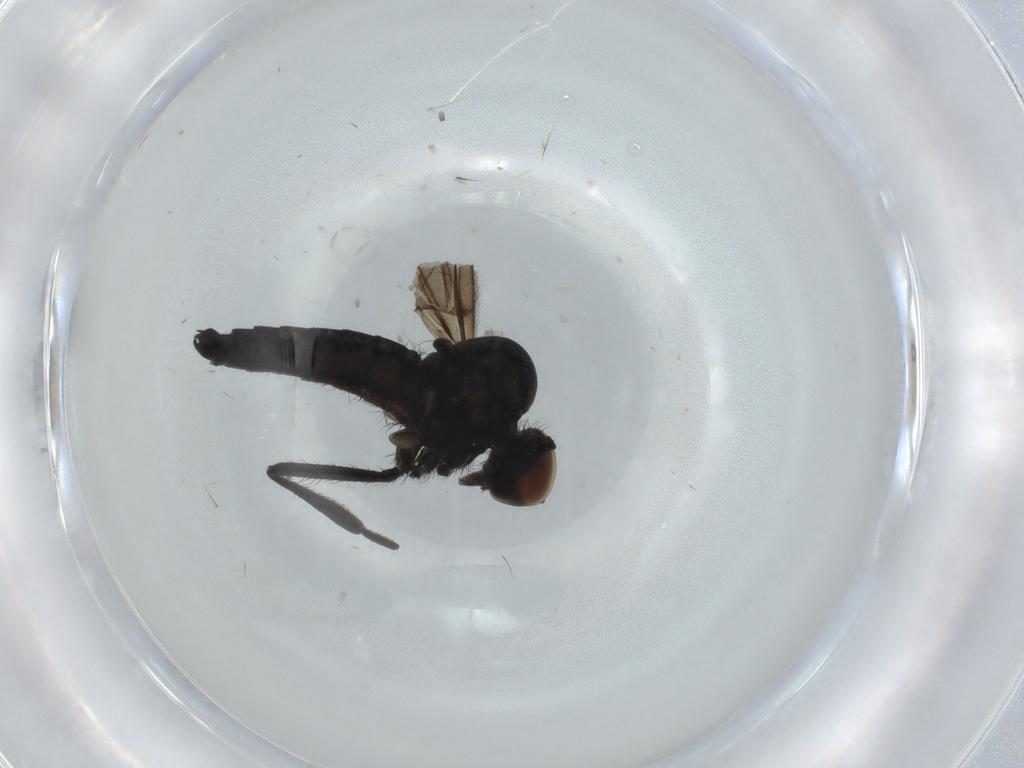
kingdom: Animalia
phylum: Arthropoda
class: Insecta
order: Diptera
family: Drosophilidae
